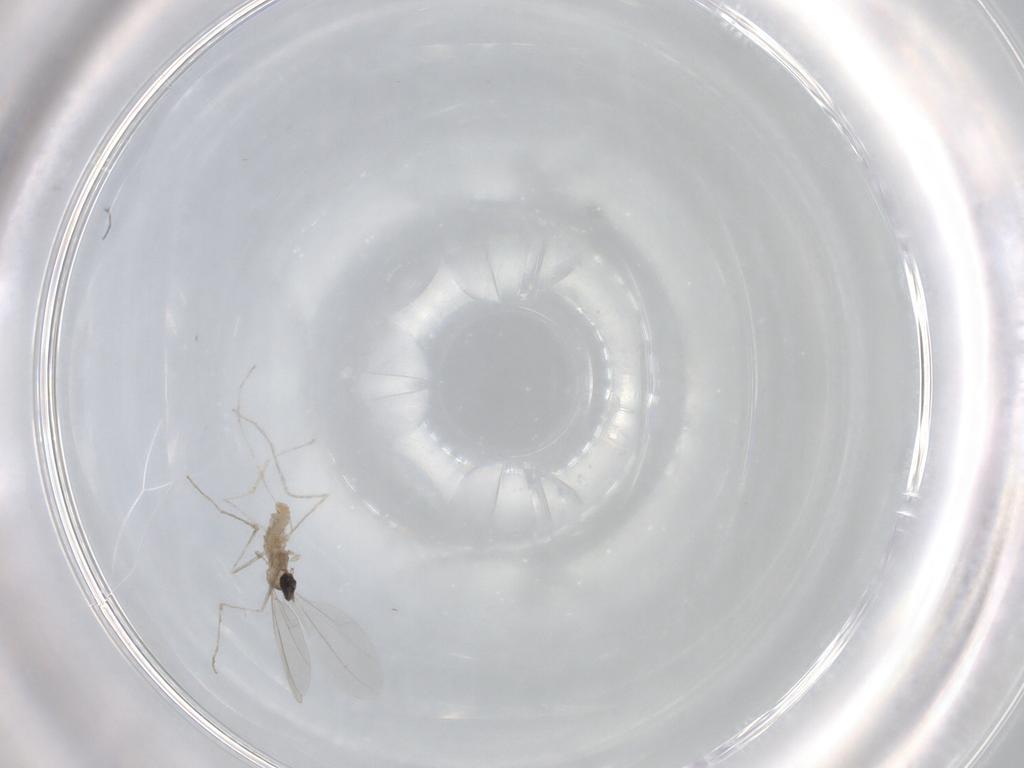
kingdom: Animalia
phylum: Arthropoda
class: Insecta
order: Diptera
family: Cecidomyiidae
